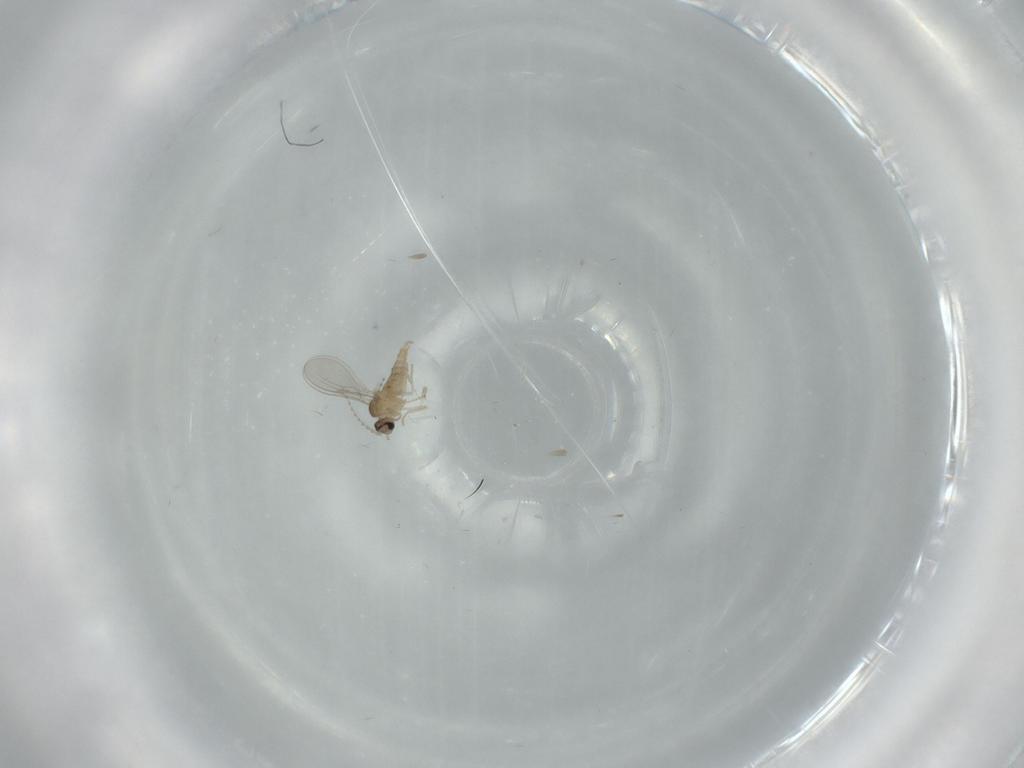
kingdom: Animalia
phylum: Arthropoda
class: Insecta
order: Diptera
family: Cecidomyiidae
